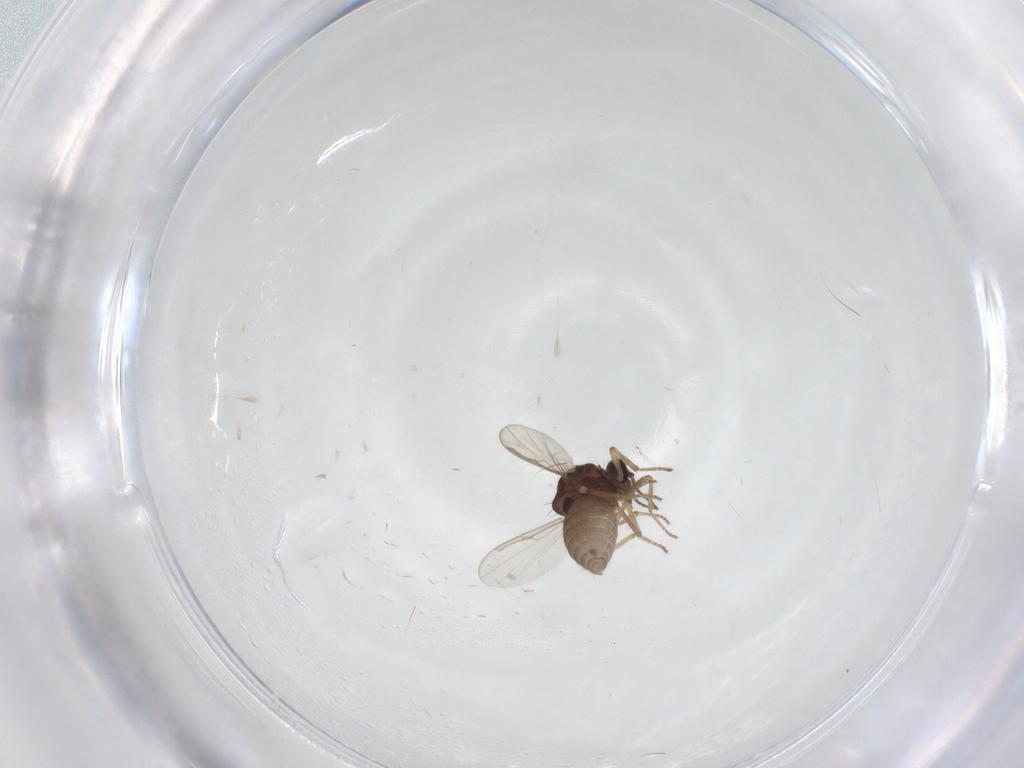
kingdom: Animalia
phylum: Arthropoda
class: Insecta
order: Diptera
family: Ceratopogonidae
